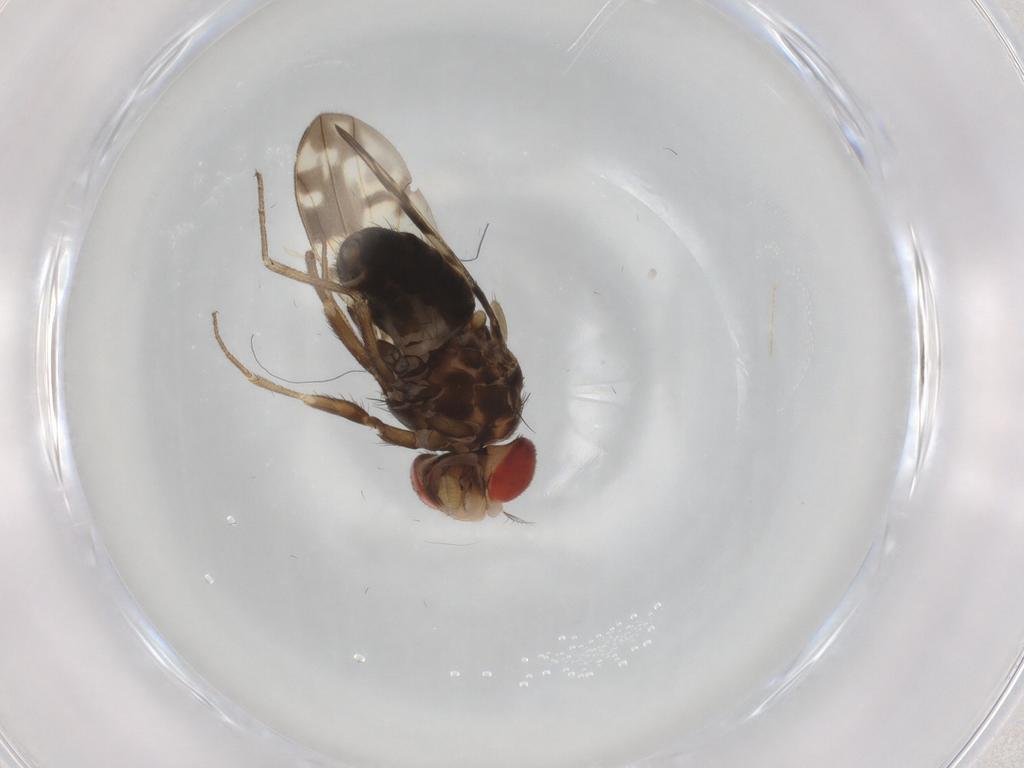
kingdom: Animalia
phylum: Arthropoda
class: Insecta
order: Diptera
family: Drosophilidae
